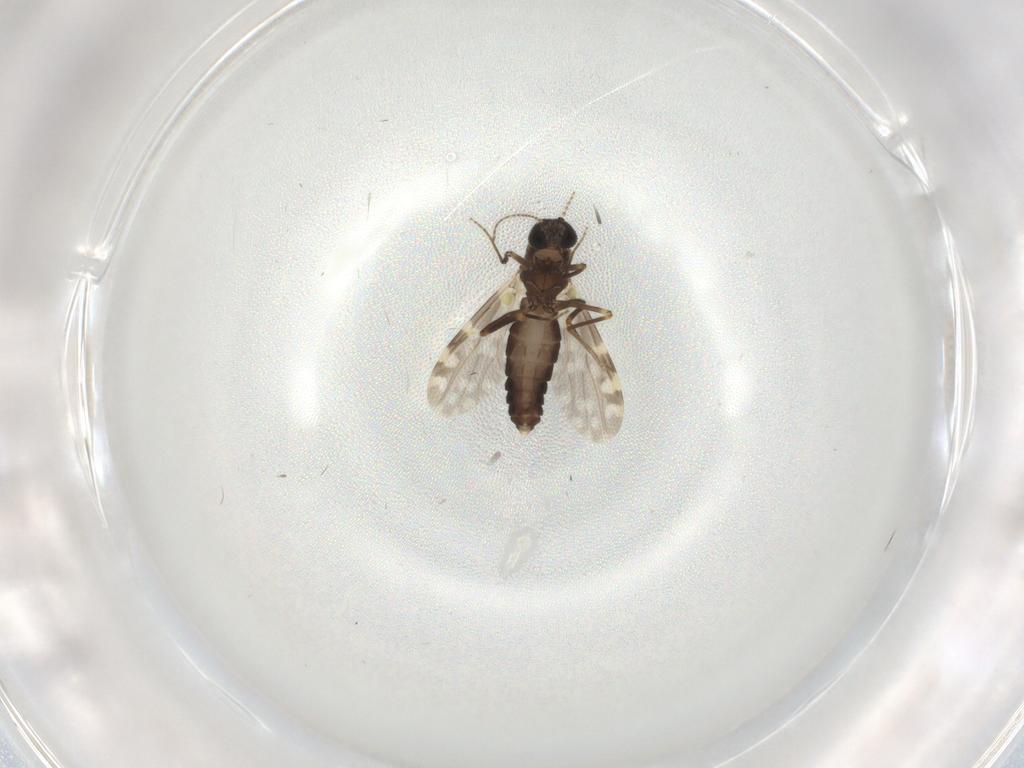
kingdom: Animalia
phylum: Arthropoda
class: Insecta
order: Diptera
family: Ceratopogonidae
